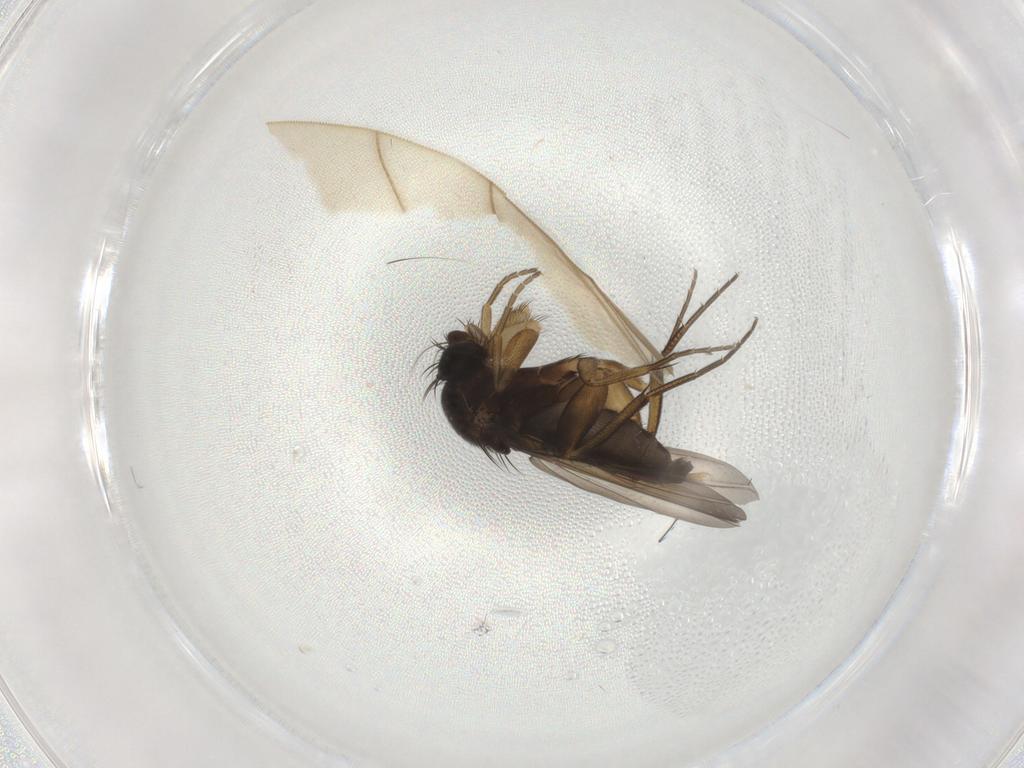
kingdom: Animalia
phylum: Arthropoda
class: Insecta
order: Diptera
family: Phoridae
